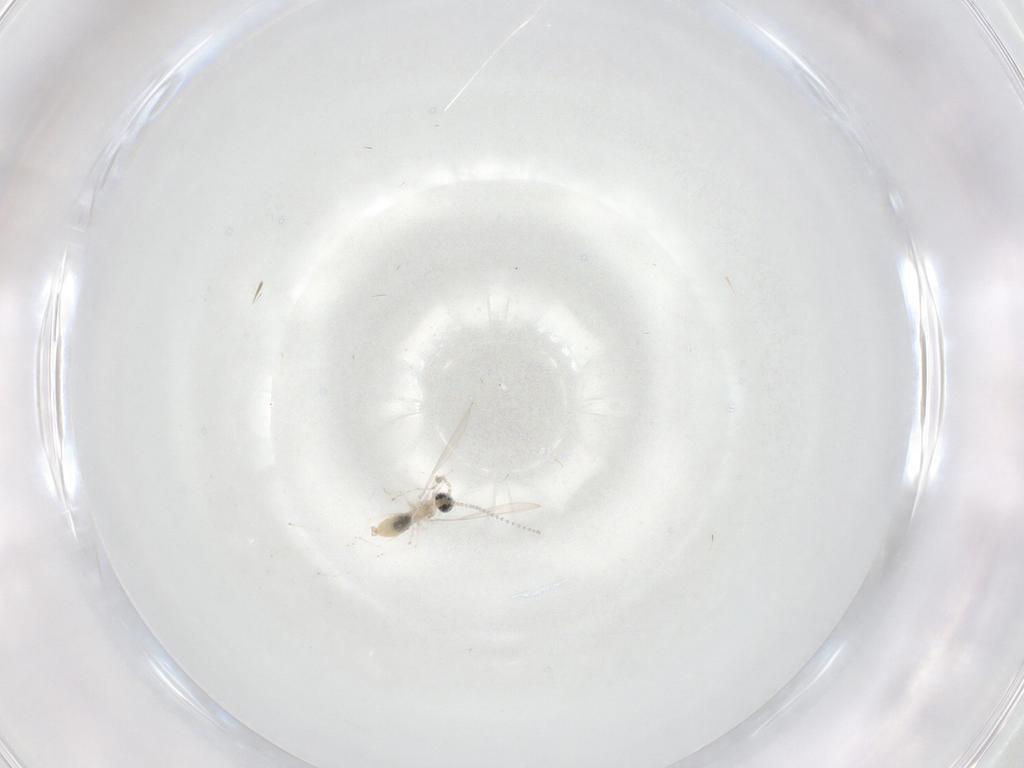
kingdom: Animalia
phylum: Arthropoda
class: Insecta
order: Diptera
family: Cecidomyiidae
